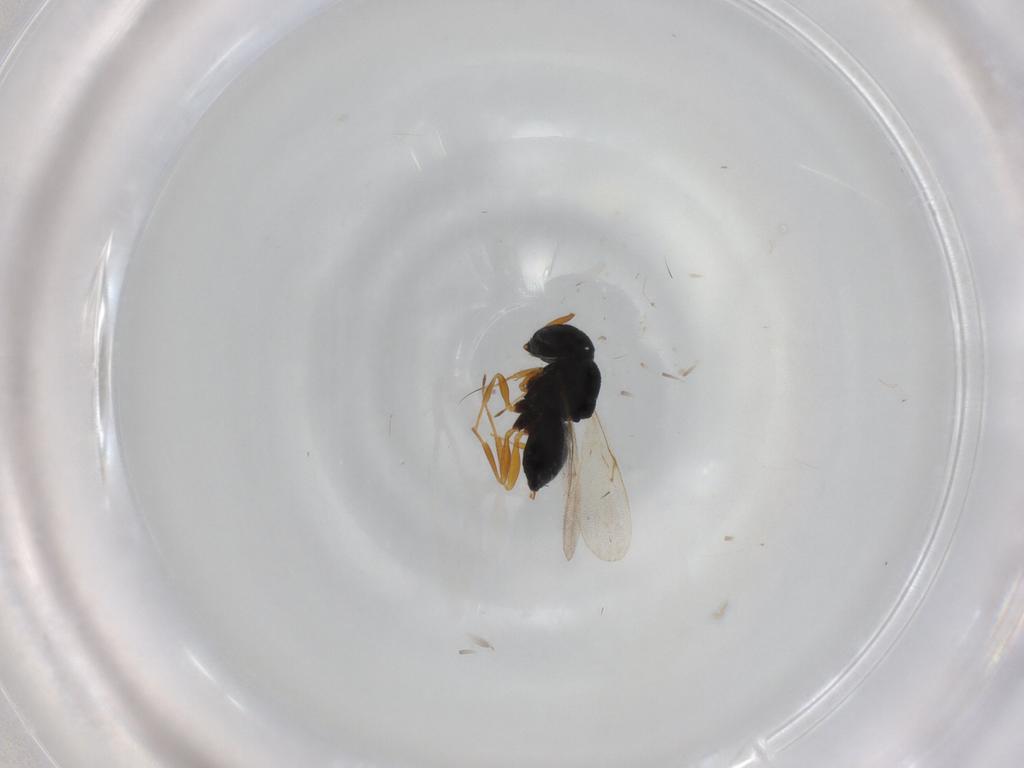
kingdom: Animalia
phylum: Arthropoda
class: Insecta
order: Hymenoptera
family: Scelionidae
